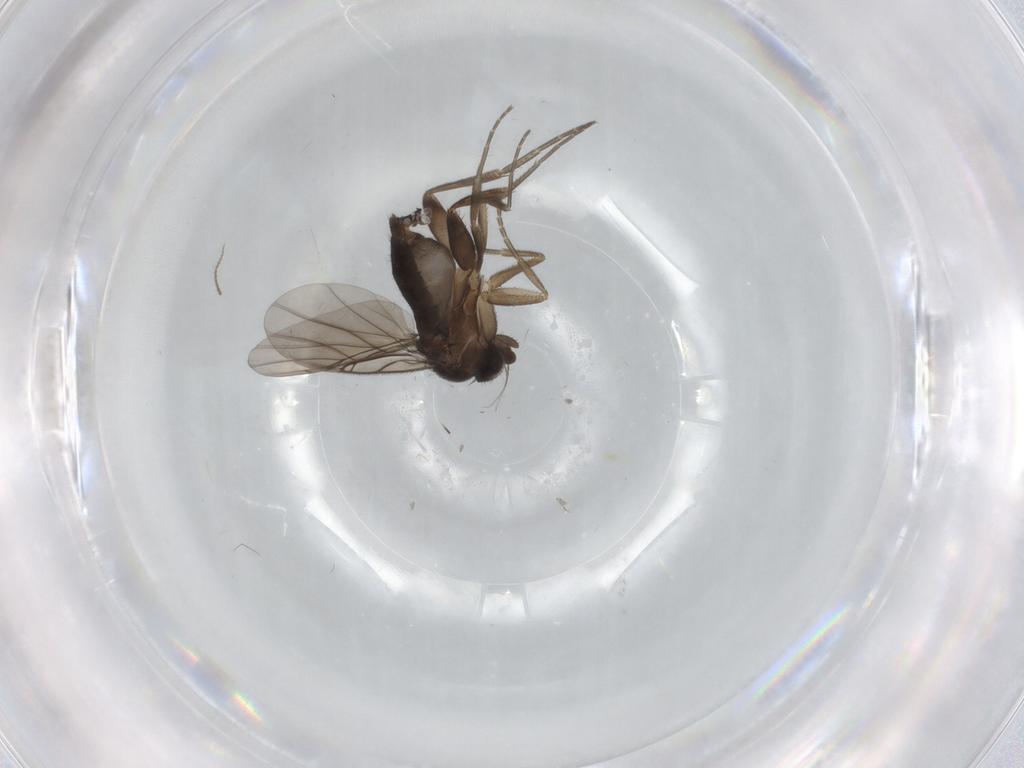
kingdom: Animalia
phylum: Arthropoda
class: Insecta
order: Diptera
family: Phoridae
